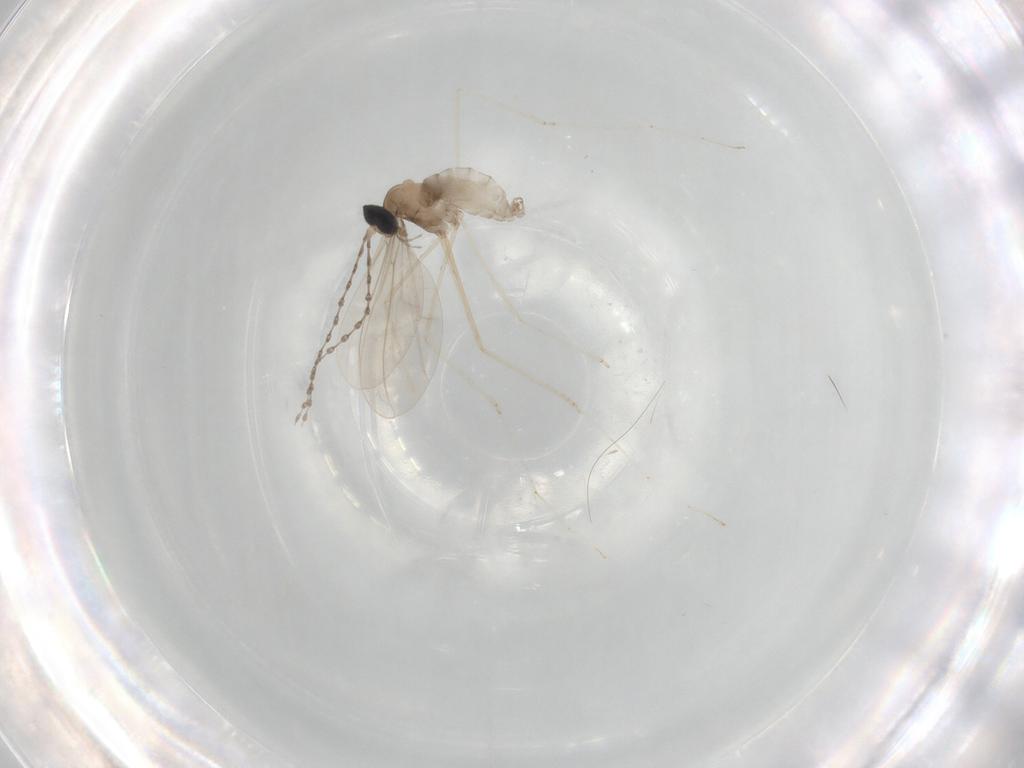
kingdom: Animalia
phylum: Arthropoda
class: Insecta
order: Diptera
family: Cecidomyiidae
